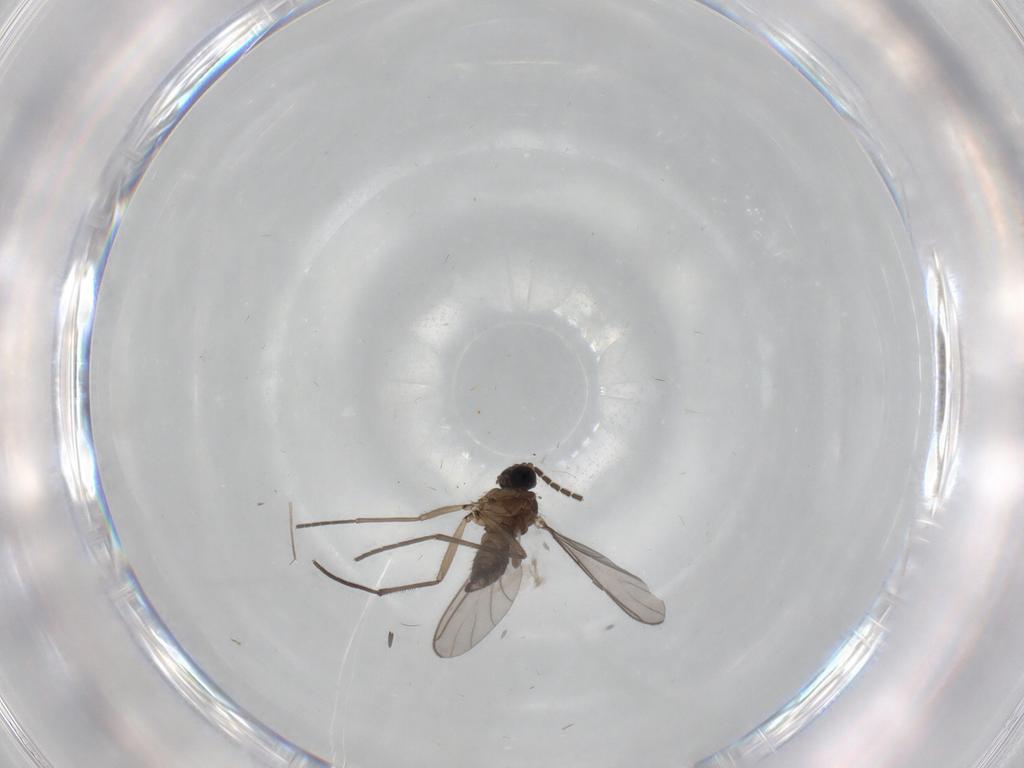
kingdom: Animalia
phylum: Arthropoda
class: Insecta
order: Diptera
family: Sciaridae
